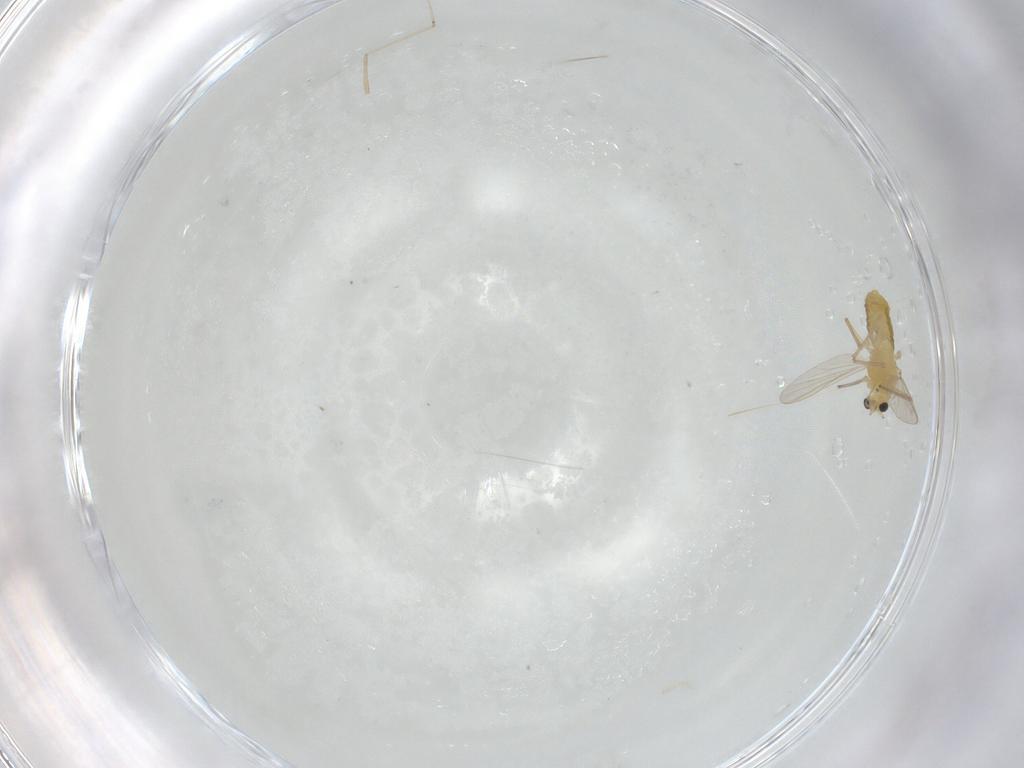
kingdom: Animalia
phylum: Arthropoda
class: Insecta
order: Diptera
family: Chironomidae
